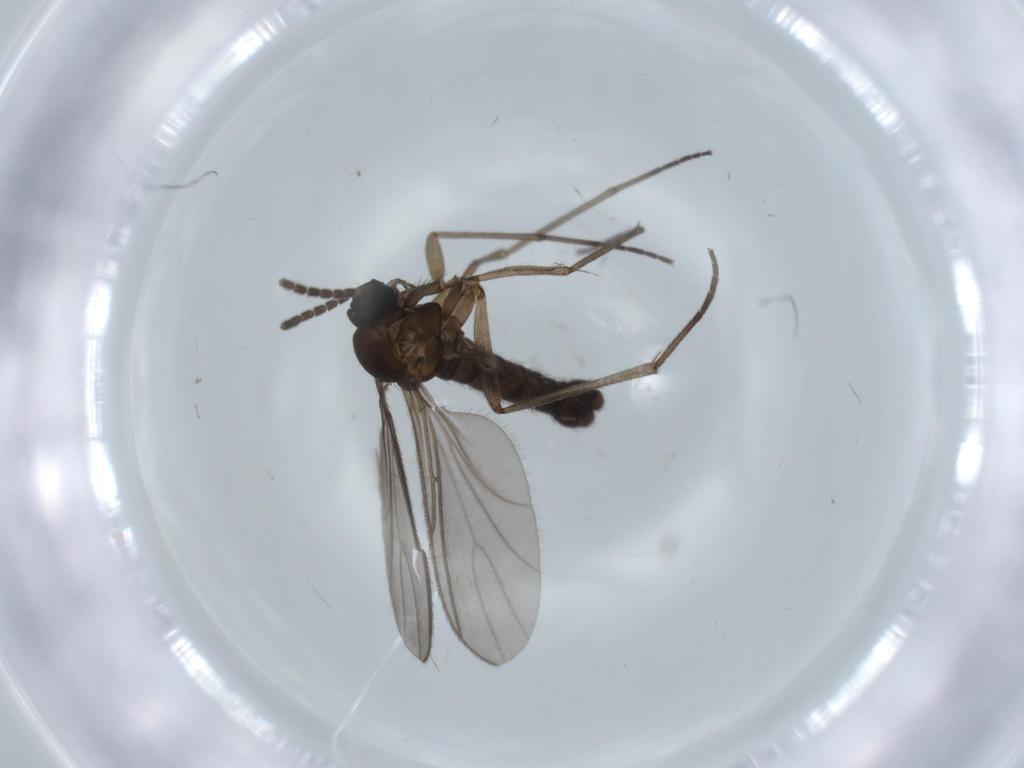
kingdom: Animalia
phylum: Arthropoda
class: Insecta
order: Diptera
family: Sciaridae
